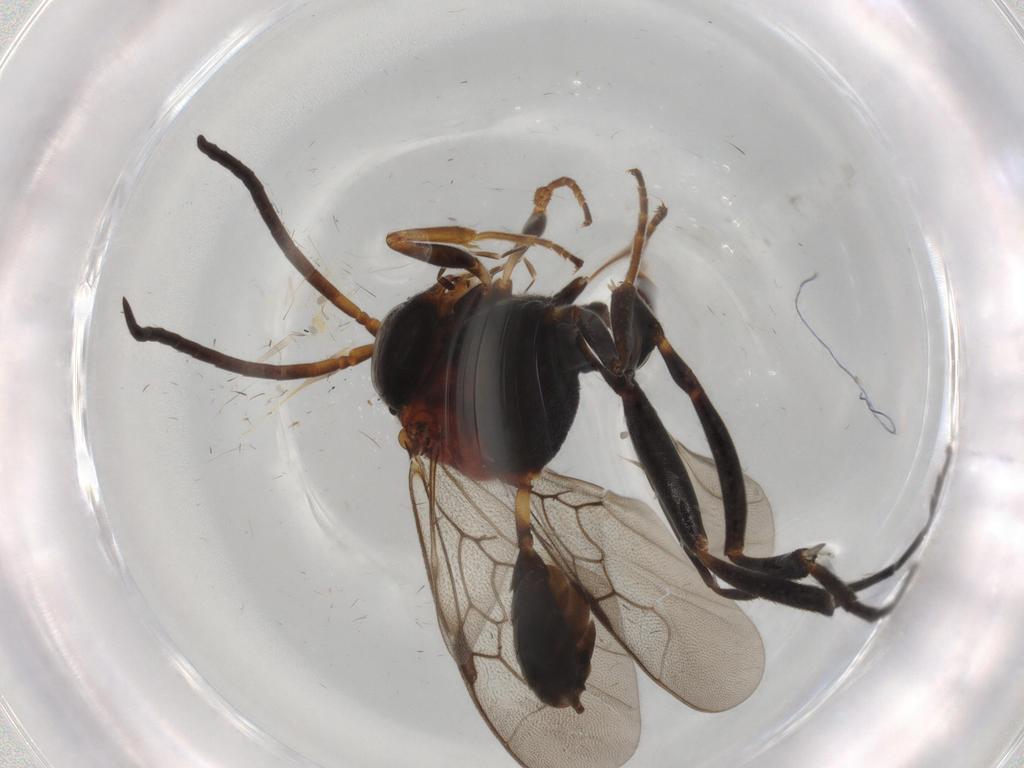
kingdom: Animalia
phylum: Arthropoda
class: Insecta
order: Hymenoptera
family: Evaniidae
